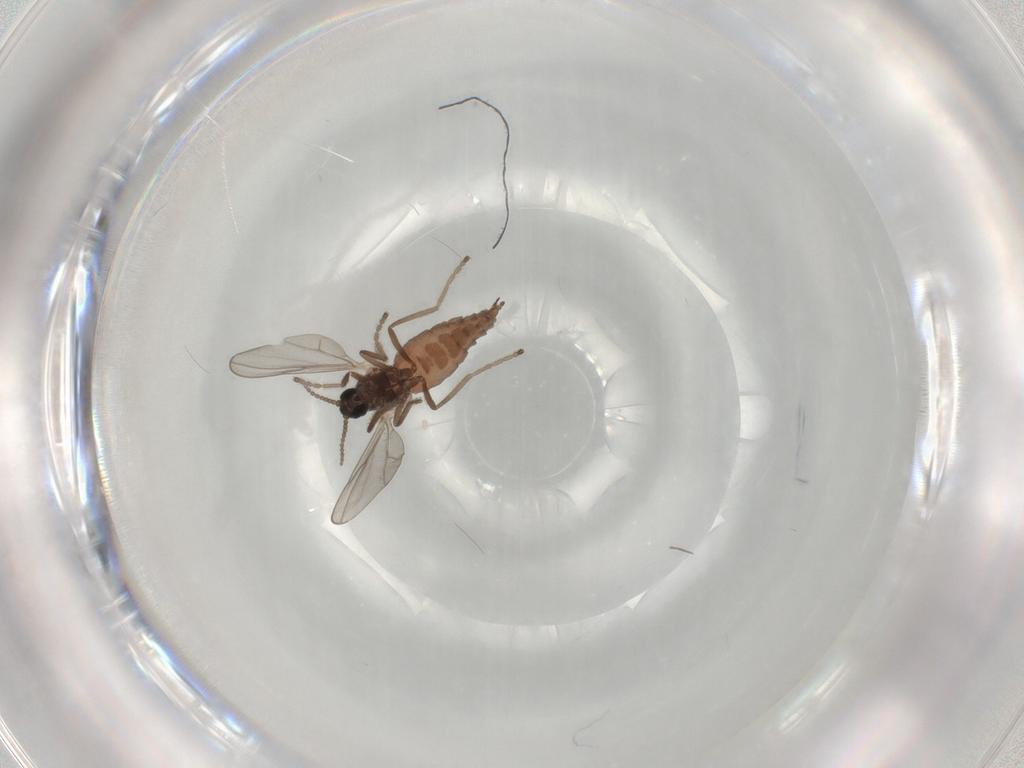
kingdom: Animalia
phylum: Arthropoda
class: Insecta
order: Diptera
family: Cecidomyiidae
